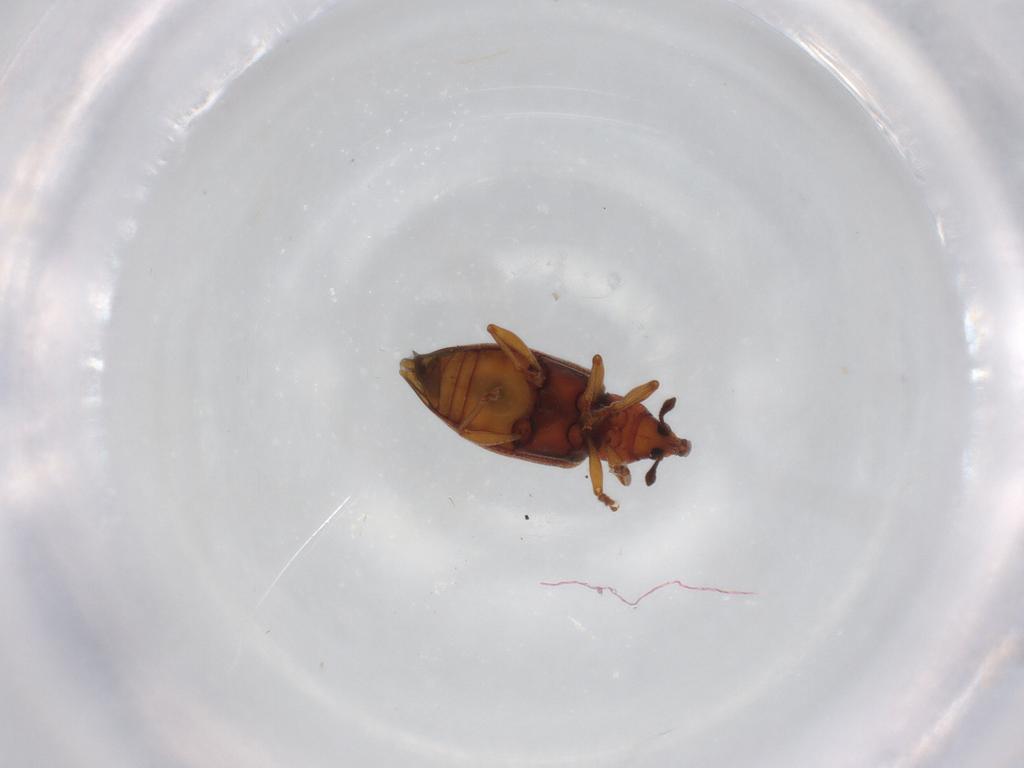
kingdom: Animalia
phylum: Arthropoda
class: Insecta
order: Coleoptera
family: Curculionidae
